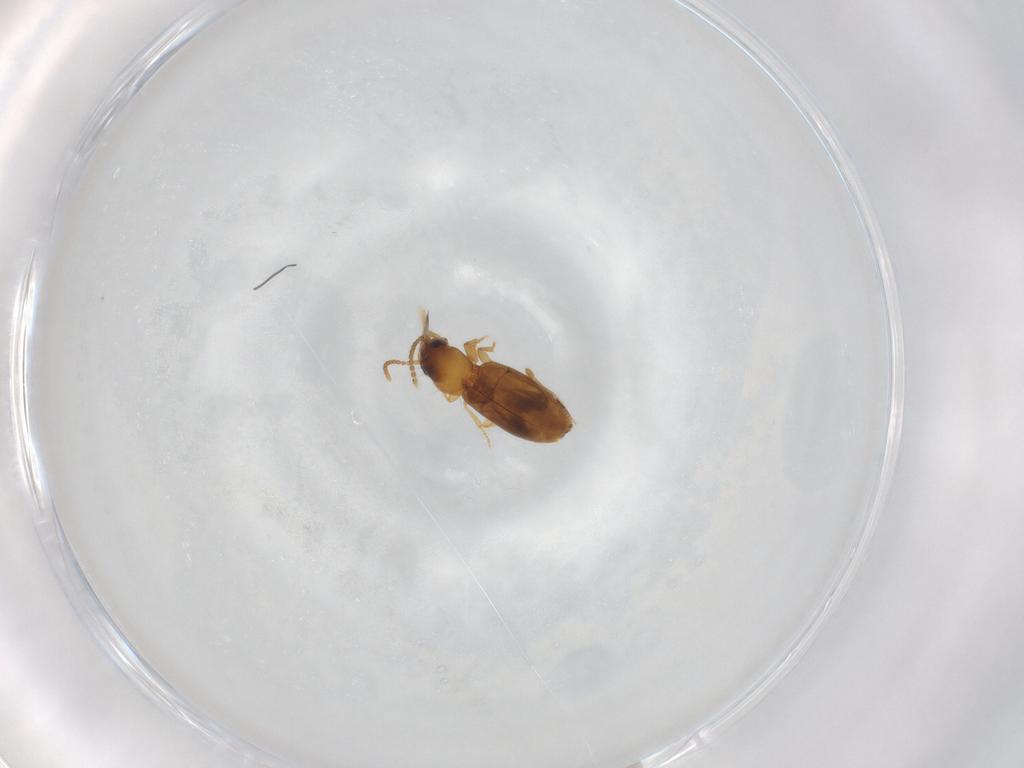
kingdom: Animalia
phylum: Arthropoda
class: Insecta
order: Coleoptera
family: Carabidae
